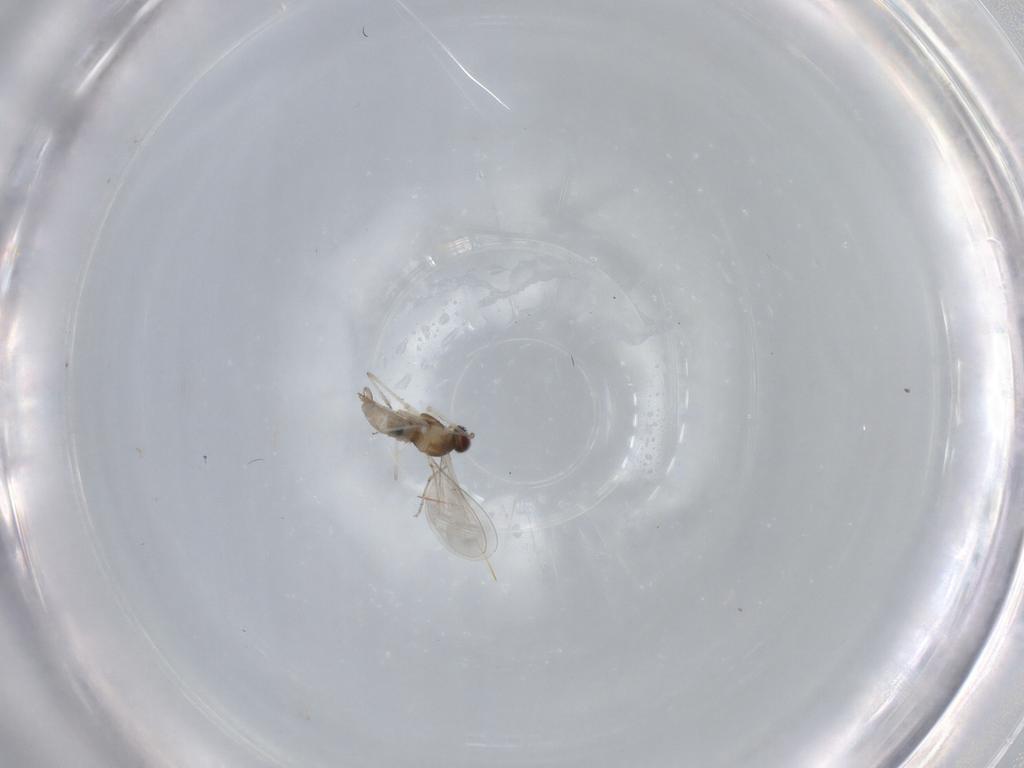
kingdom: Animalia
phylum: Arthropoda
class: Insecta
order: Diptera
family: Cecidomyiidae
